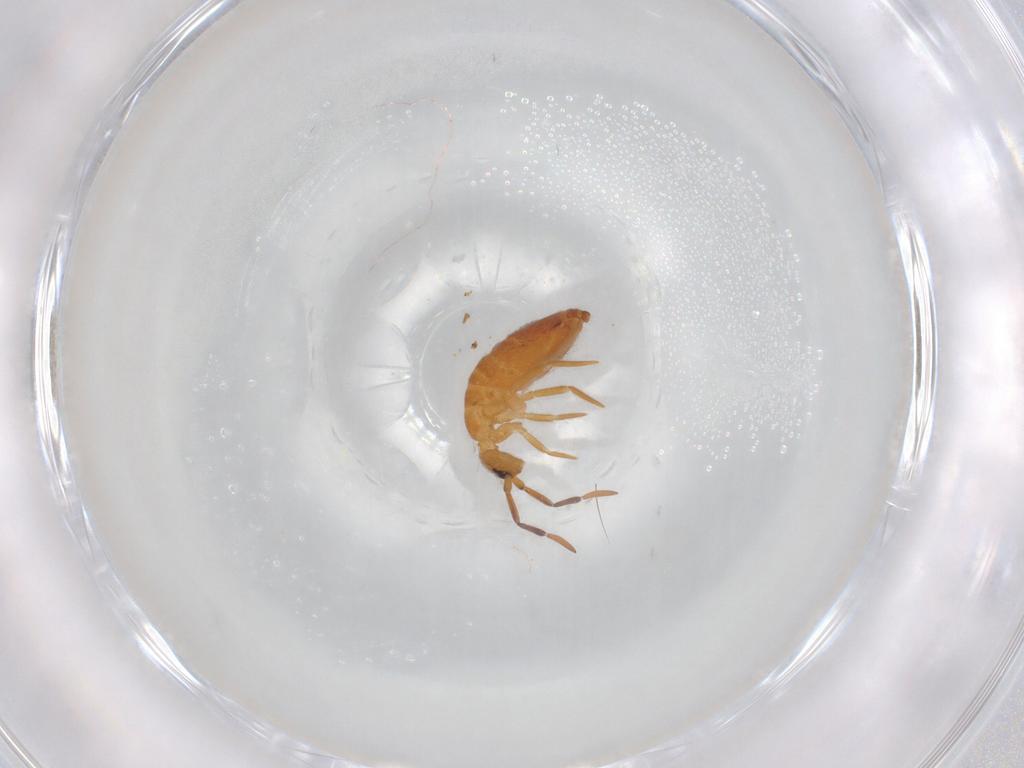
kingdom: Animalia
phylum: Arthropoda
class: Collembola
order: Entomobryomorpha
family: Entomobryidae
